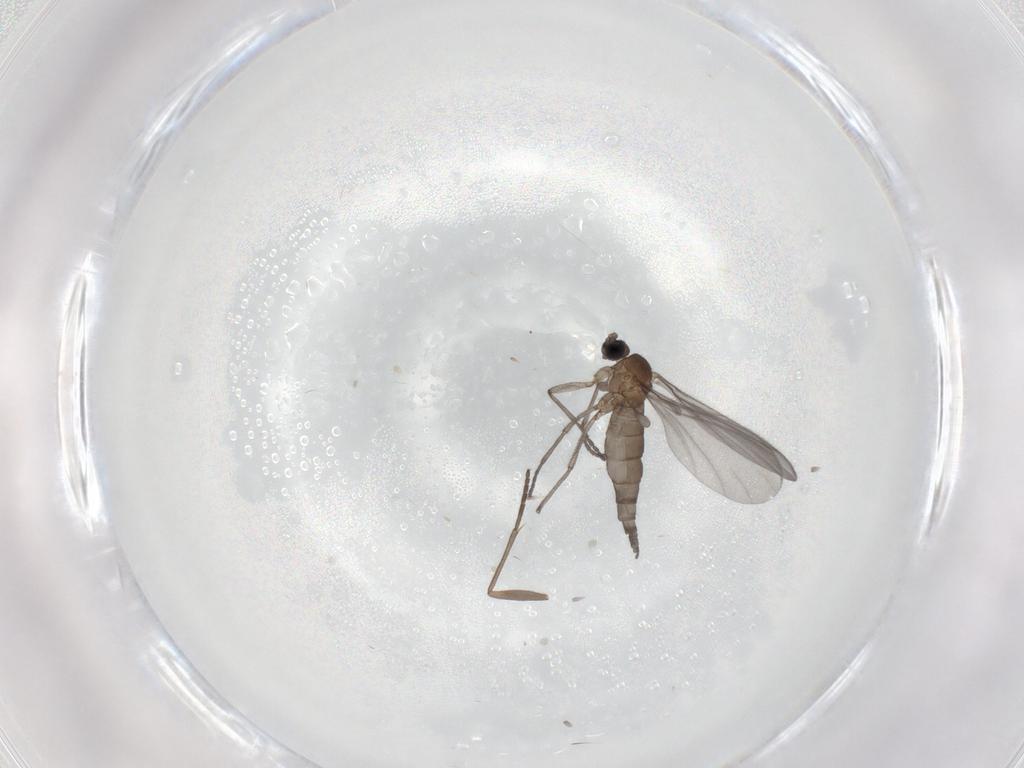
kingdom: Animalia
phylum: Arthropoda
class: Insecta
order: Diptera
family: Sciaridae
